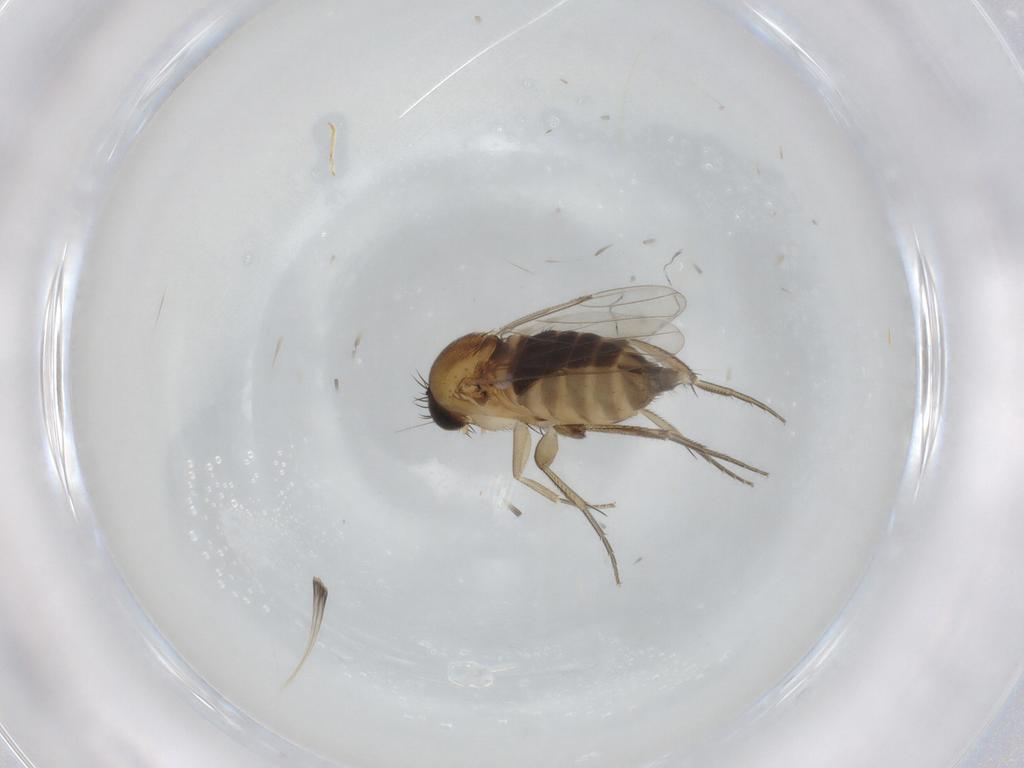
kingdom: Animalia
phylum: Arthropoda
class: Insecta
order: Diptera
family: Phoridae
